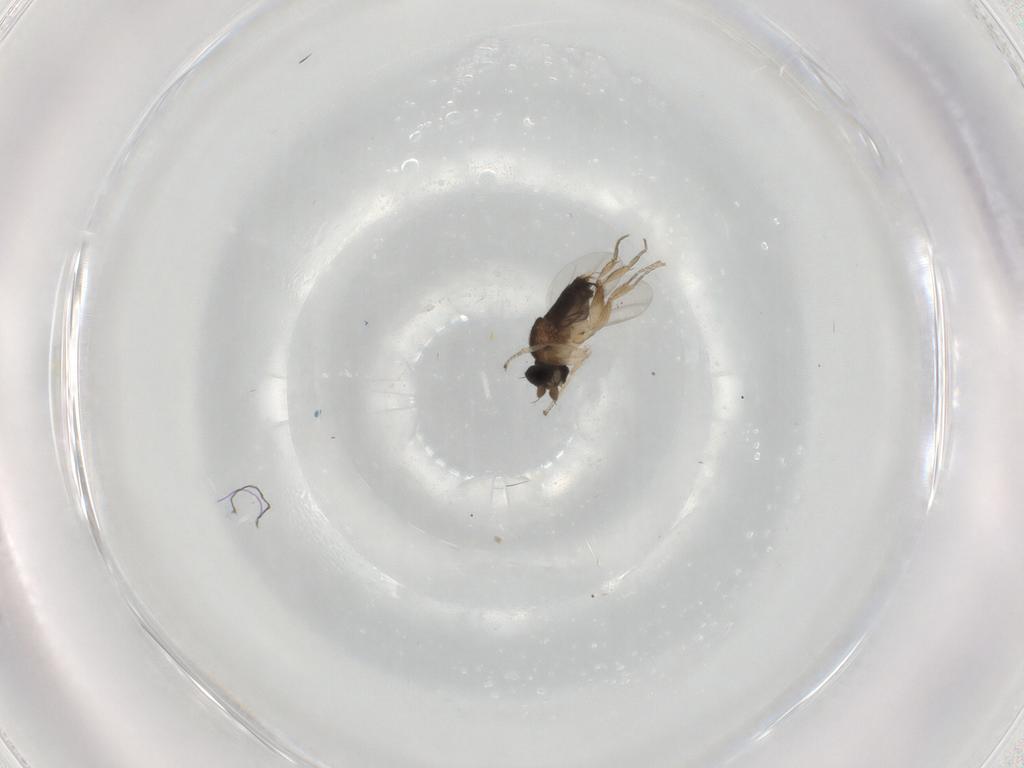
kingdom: Animalia
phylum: Arthropoda
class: Insecta
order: Diptera
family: Phoridae
